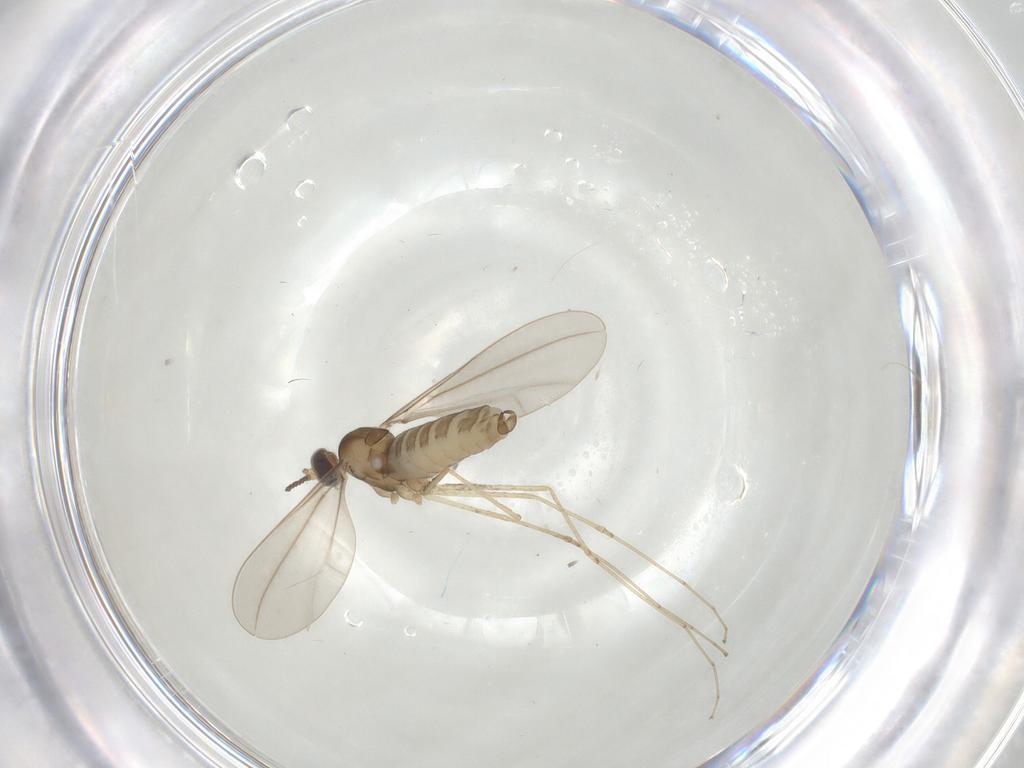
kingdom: Animalia
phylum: Arthropoda
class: Insecta
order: Diptera
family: Cecidomyiidae
